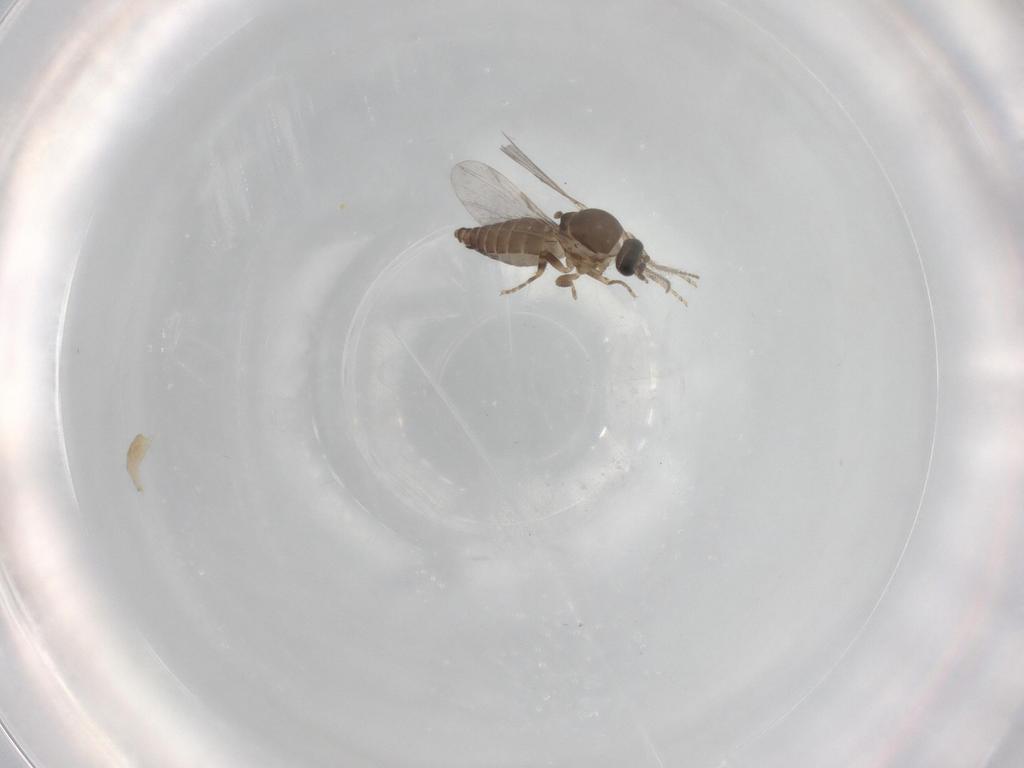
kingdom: Animalia
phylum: Arthropoda
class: Insecta
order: Diptera
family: Ceratopogonidae
